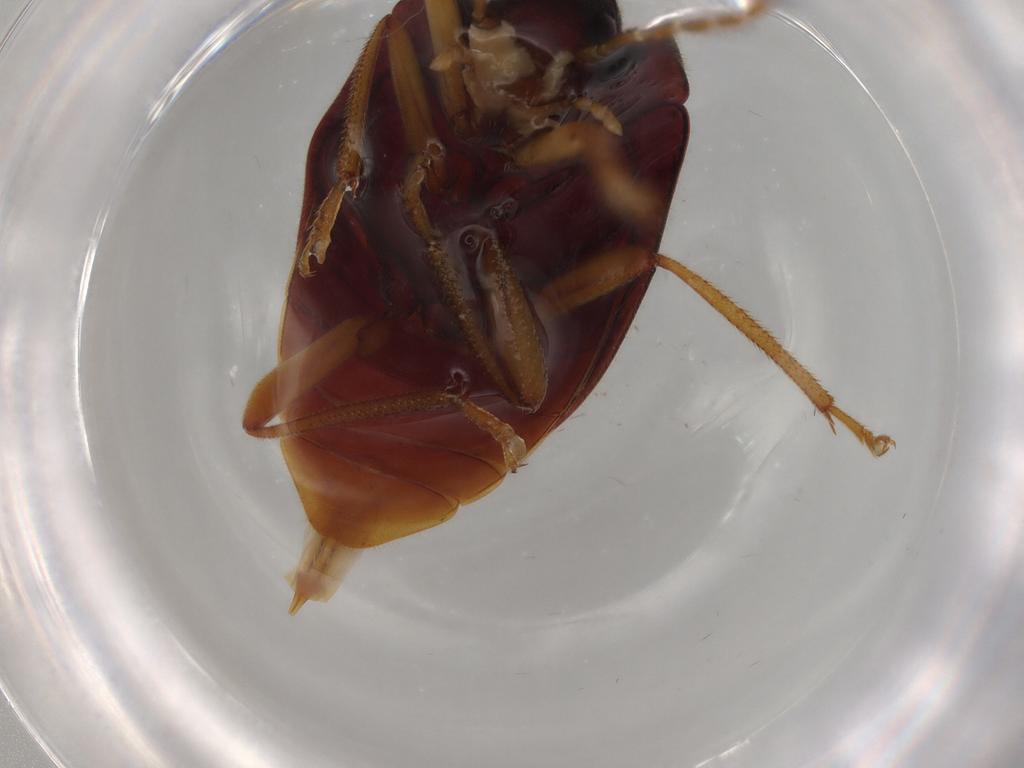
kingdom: Animalia
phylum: Arthropoda
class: Insecta
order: Coleoptera
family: Ptilodactylidae
